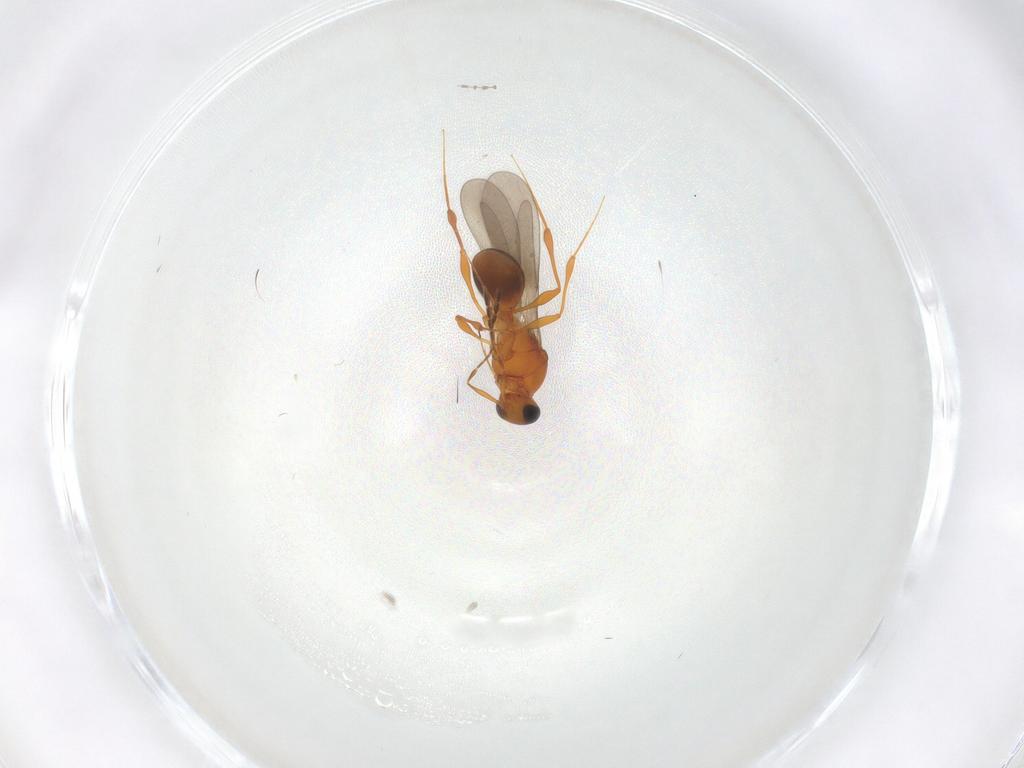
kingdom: Animalia
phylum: Arthropoda
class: Insecta
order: Hymenoptera
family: Platygastridae
